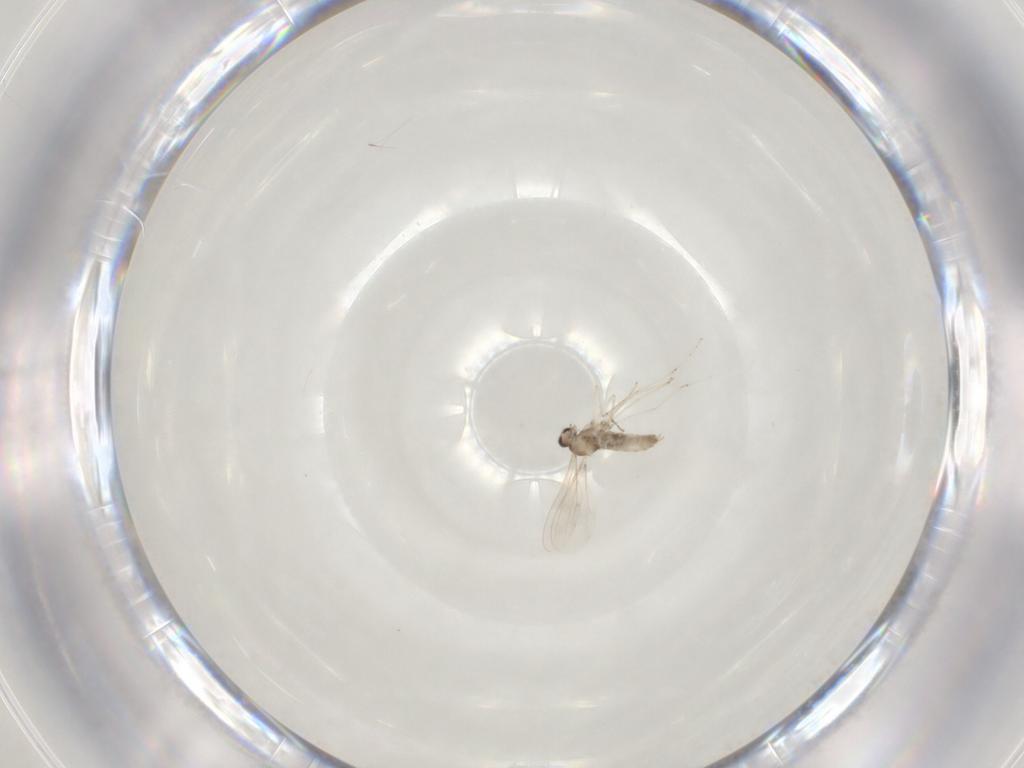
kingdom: Animalia
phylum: Arthropoda
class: Insecta
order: Diptera
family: Cecidomyiidae
